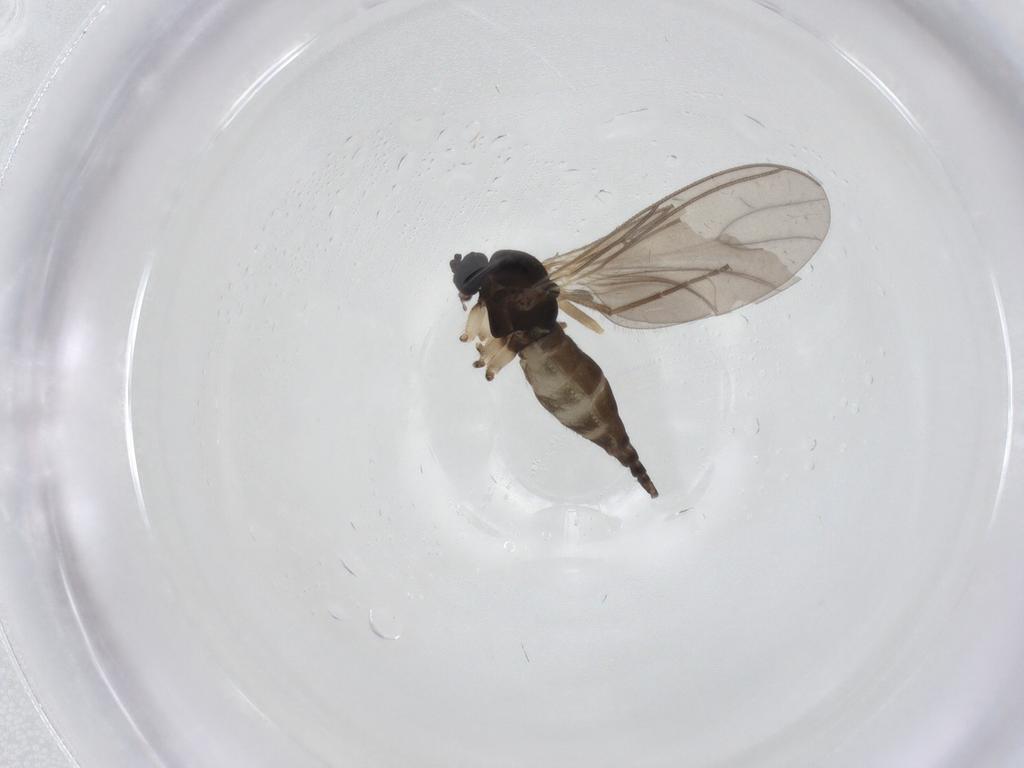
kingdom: Animalia
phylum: Arthropoda
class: Insecta
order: Diptera
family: Sciaridae
